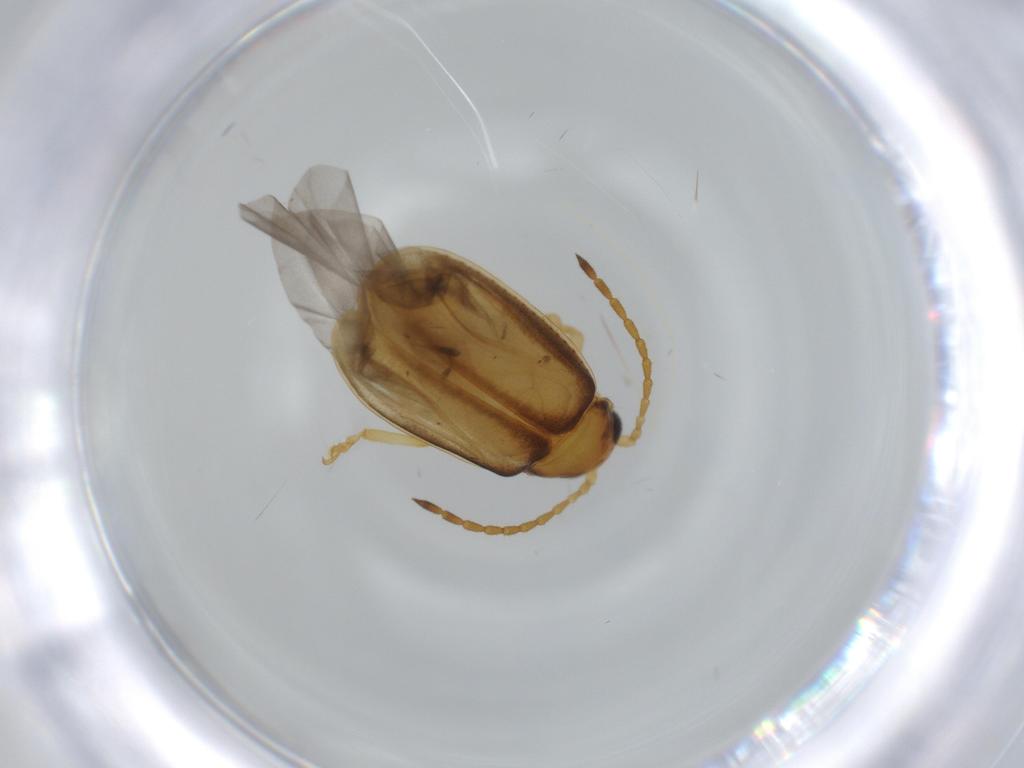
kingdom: Animalia
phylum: Arthropoda
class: Insecta
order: Coleoptera
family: Chrysomelidae
